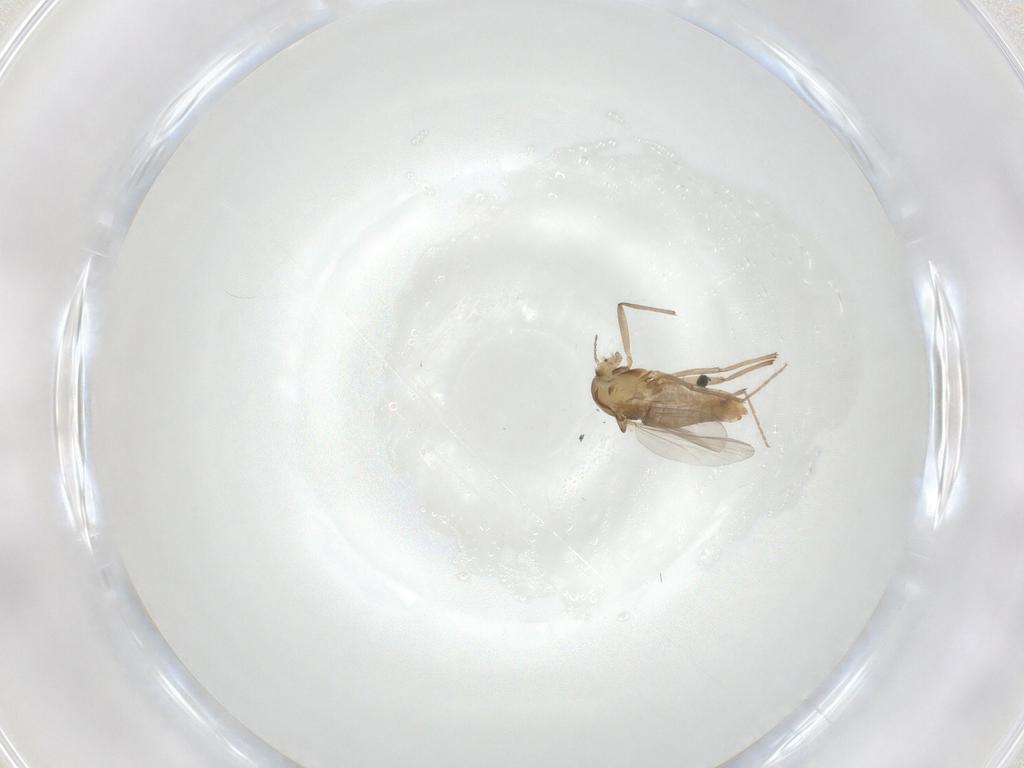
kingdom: Animalia
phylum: Arthropoda
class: Insecta
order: Diptera
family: Chironomidae
